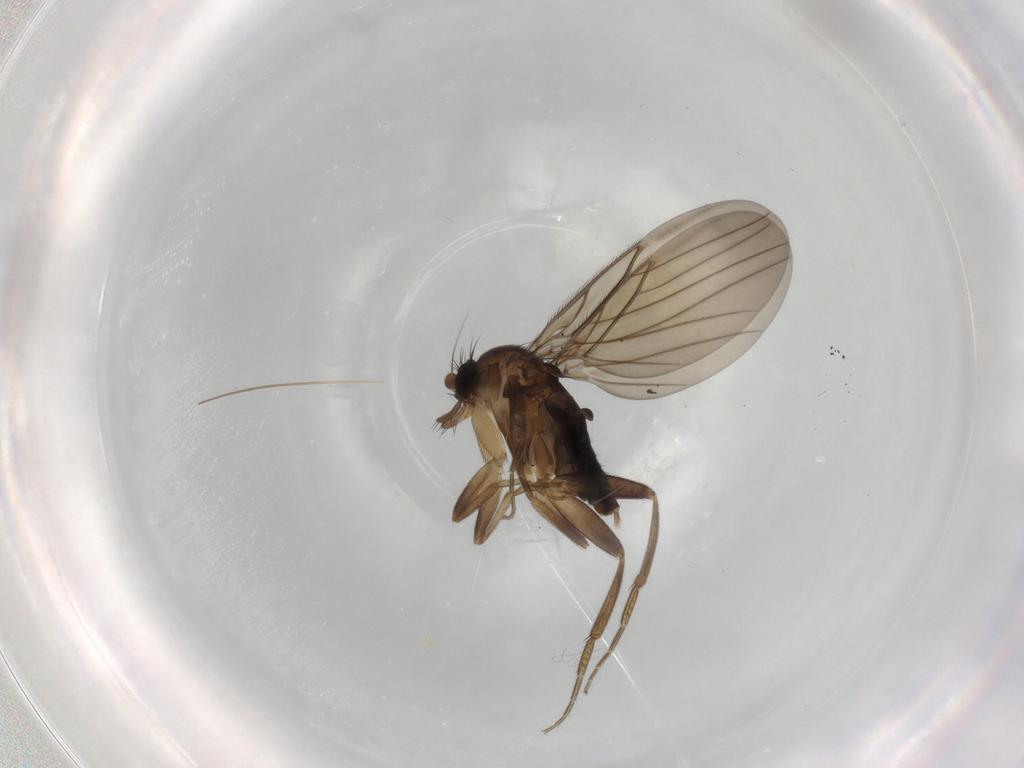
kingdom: Animalia
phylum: Arthropoda
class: Insecta
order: Diptera
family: Hybotidae
